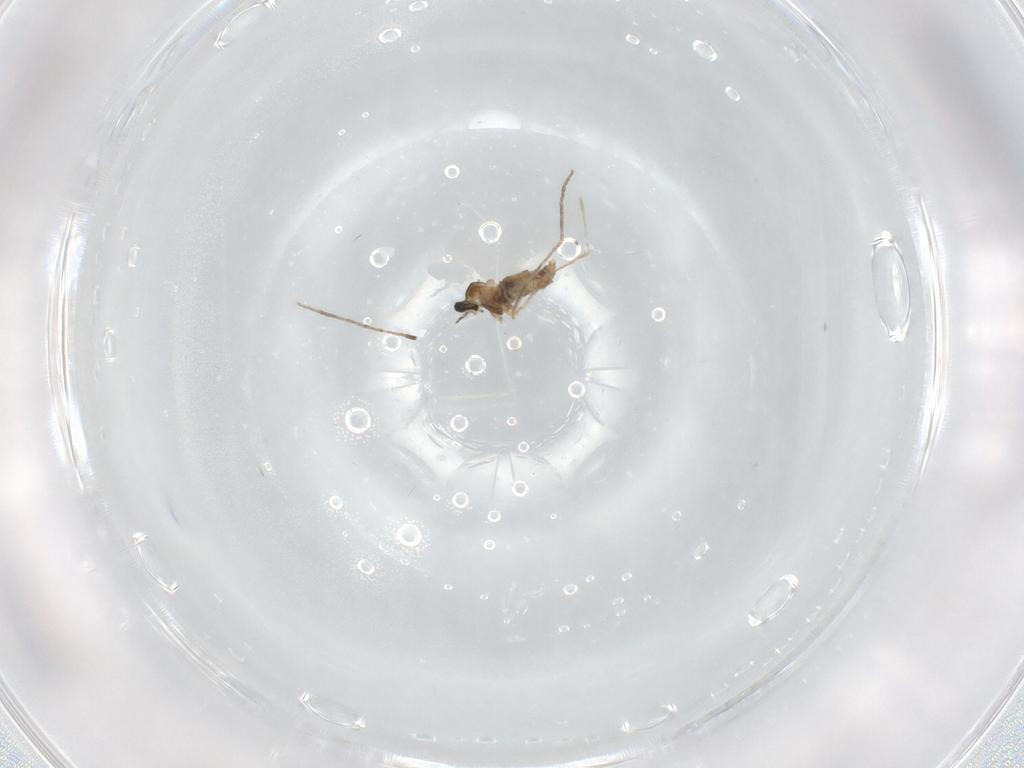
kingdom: Animalia
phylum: Arthropoda
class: Insecta
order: Diptera
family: Cecidomyiidae
